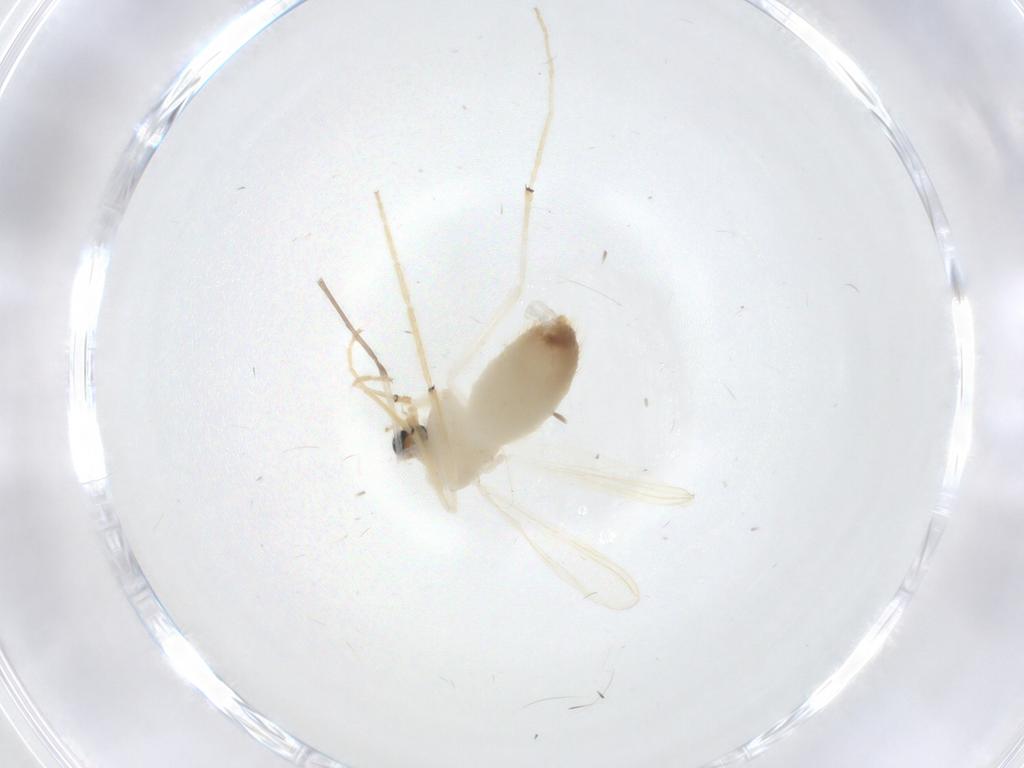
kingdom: Animalia
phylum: Arthropoda
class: Insecta
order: Diptera
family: Chironomidae
